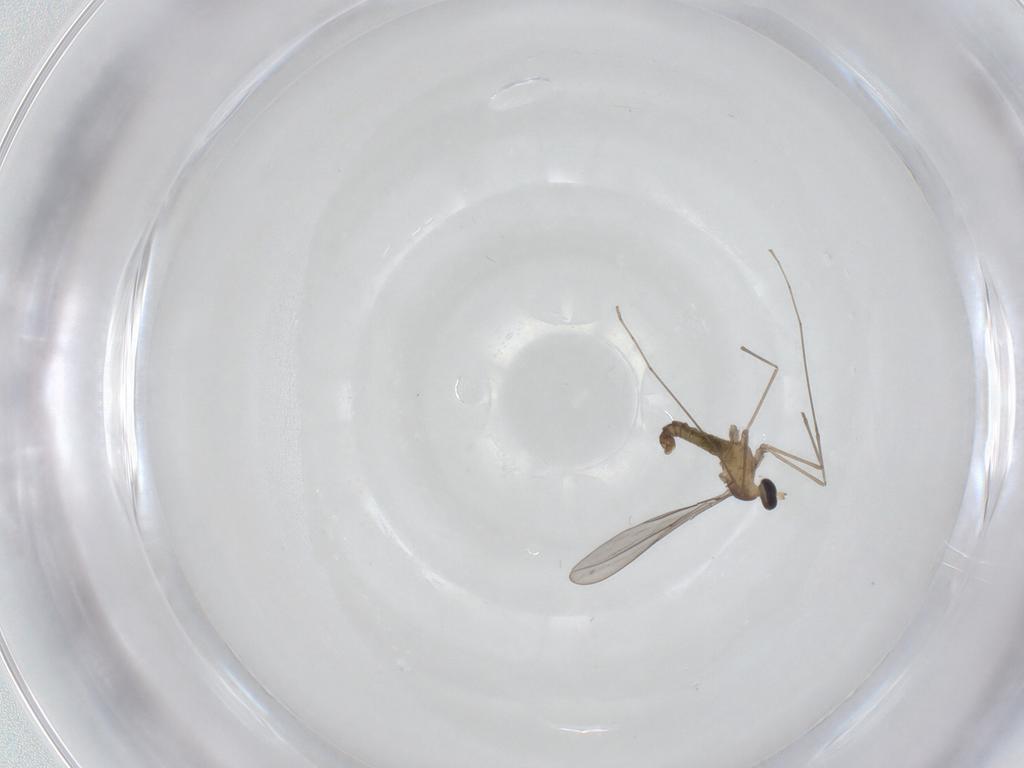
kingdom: Animalia
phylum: Arthropoda
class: Insecta
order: Diptera
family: Cecidomyiidae
